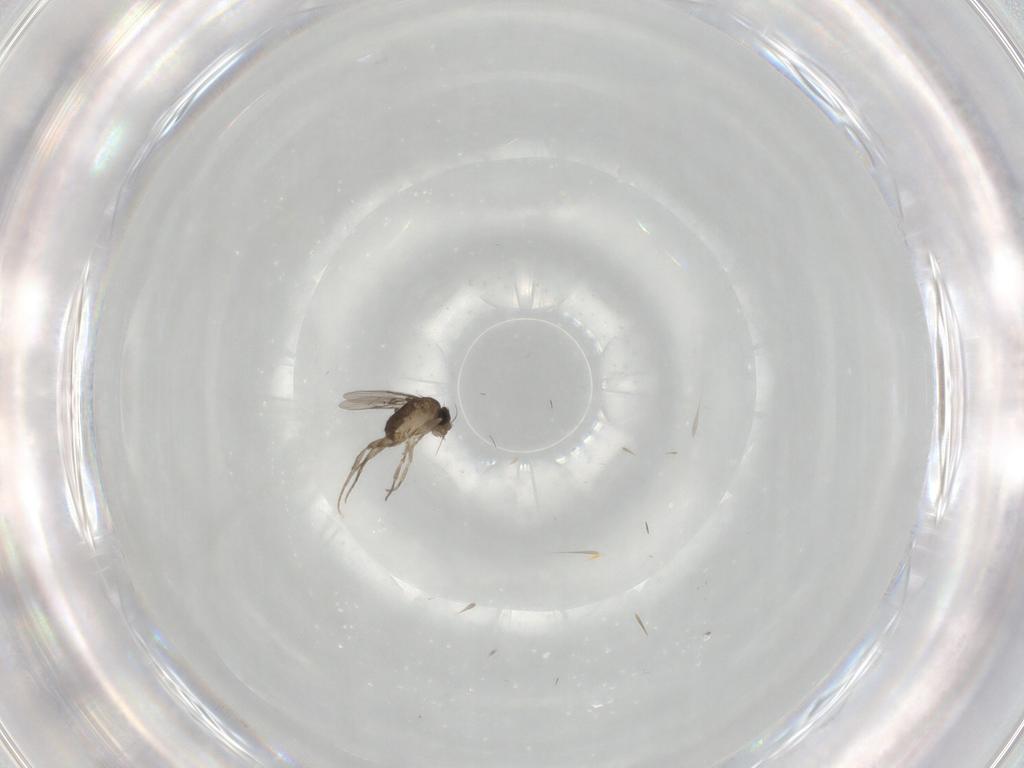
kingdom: Animalia
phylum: Arthropoda
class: Insecta
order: Diptera
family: Phoridae
